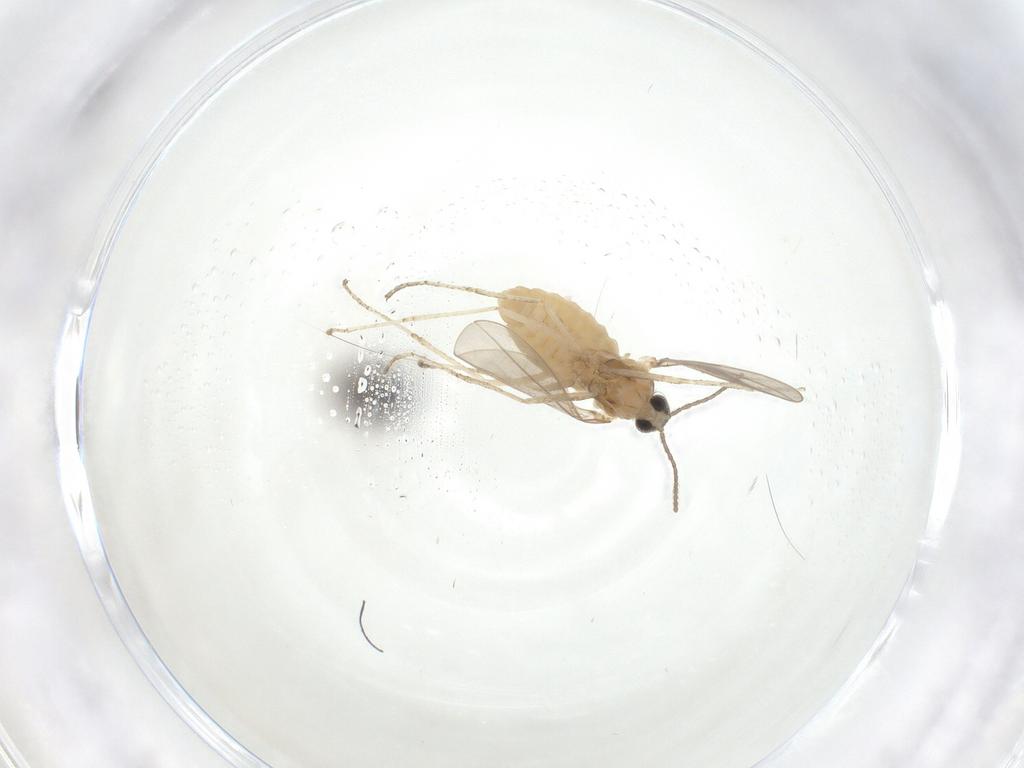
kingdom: Animalia
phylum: Arthropoda
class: Insecta
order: Diptera
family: Cecidomyiidae
